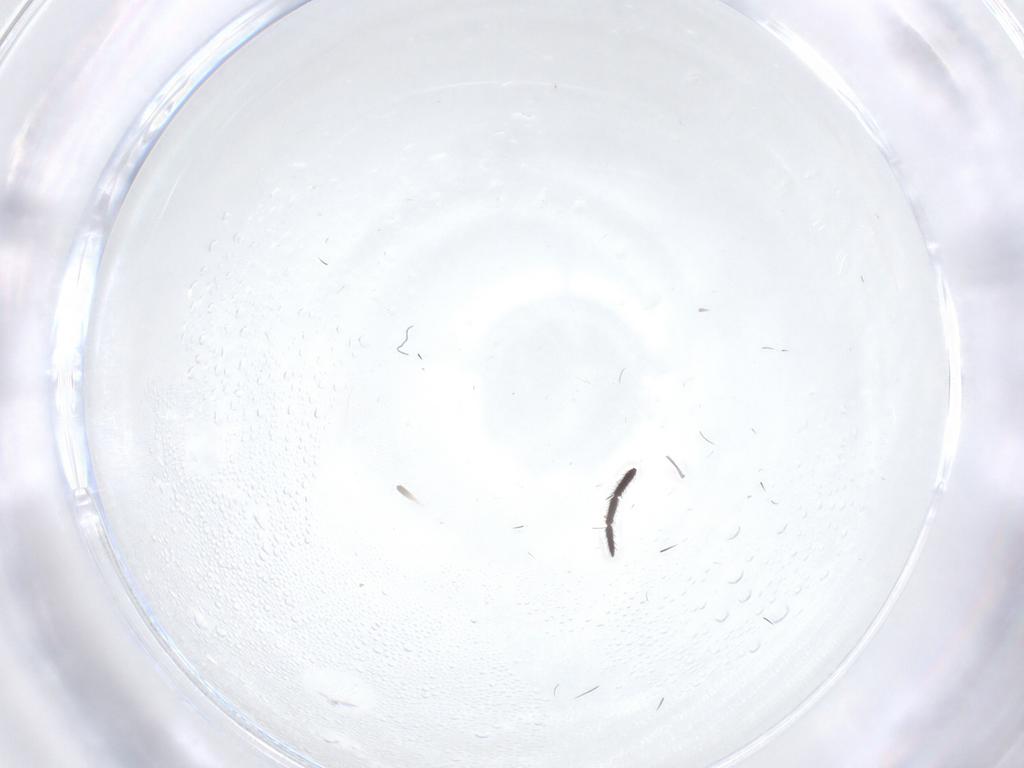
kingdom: Animalia
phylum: Arthropoda
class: Insecta
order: Diptera
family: Limoniidae
